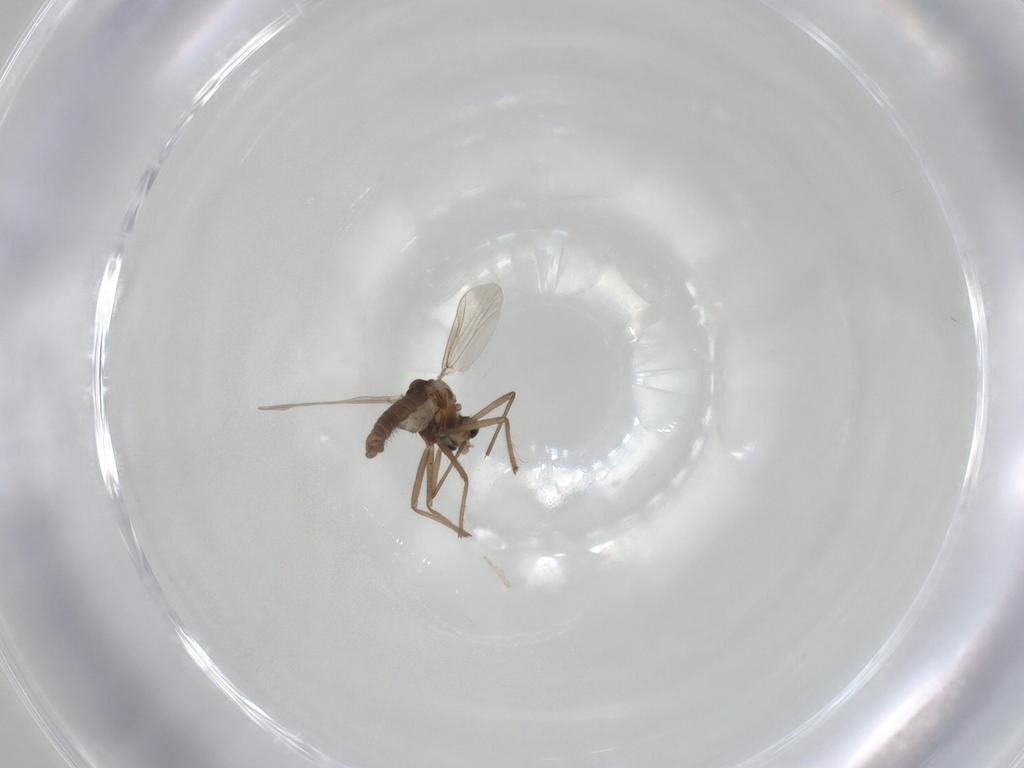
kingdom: Animalia
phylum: Arthropoda
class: Insecta
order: Diptera
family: Chironomidae
